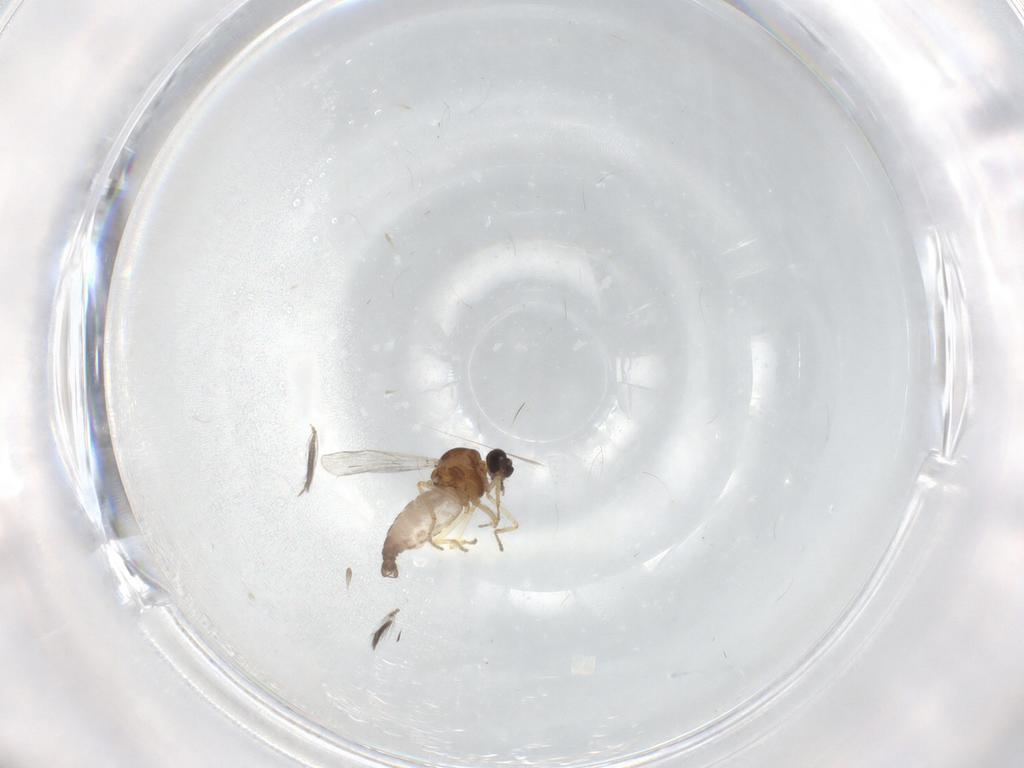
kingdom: Animalia
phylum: Arthropoda
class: Insecta
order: Diptera
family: Ceratopogonidae
